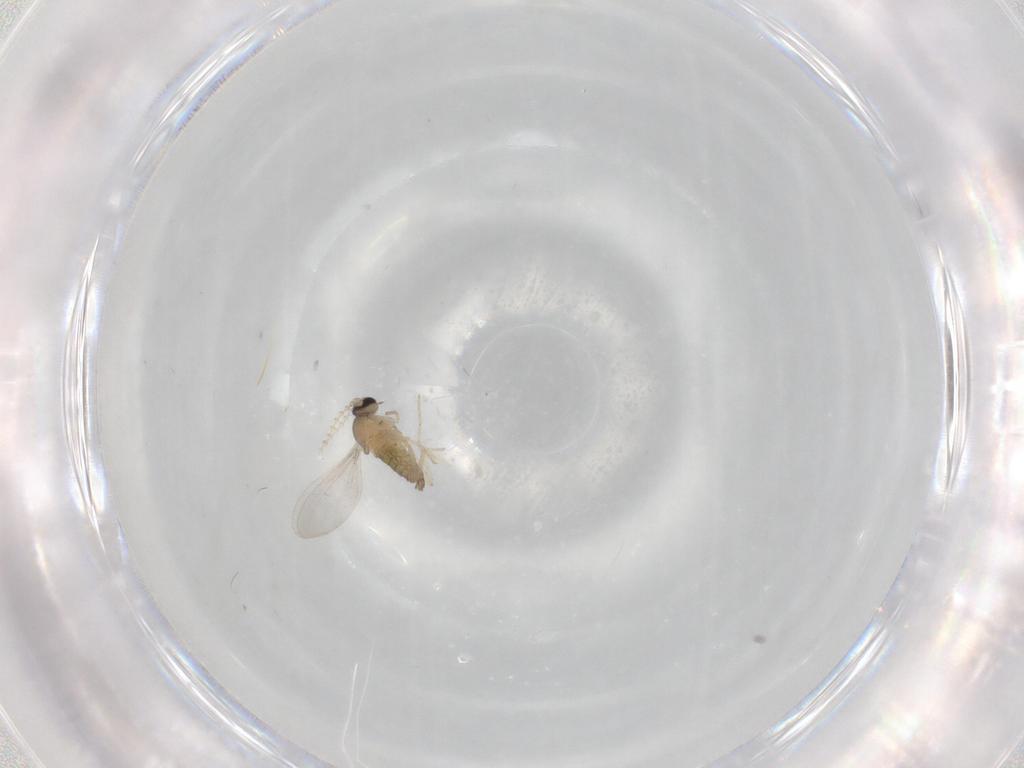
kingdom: Animalia
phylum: Arthropoda
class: Insecta
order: Diptera
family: Cecidomyiidae
